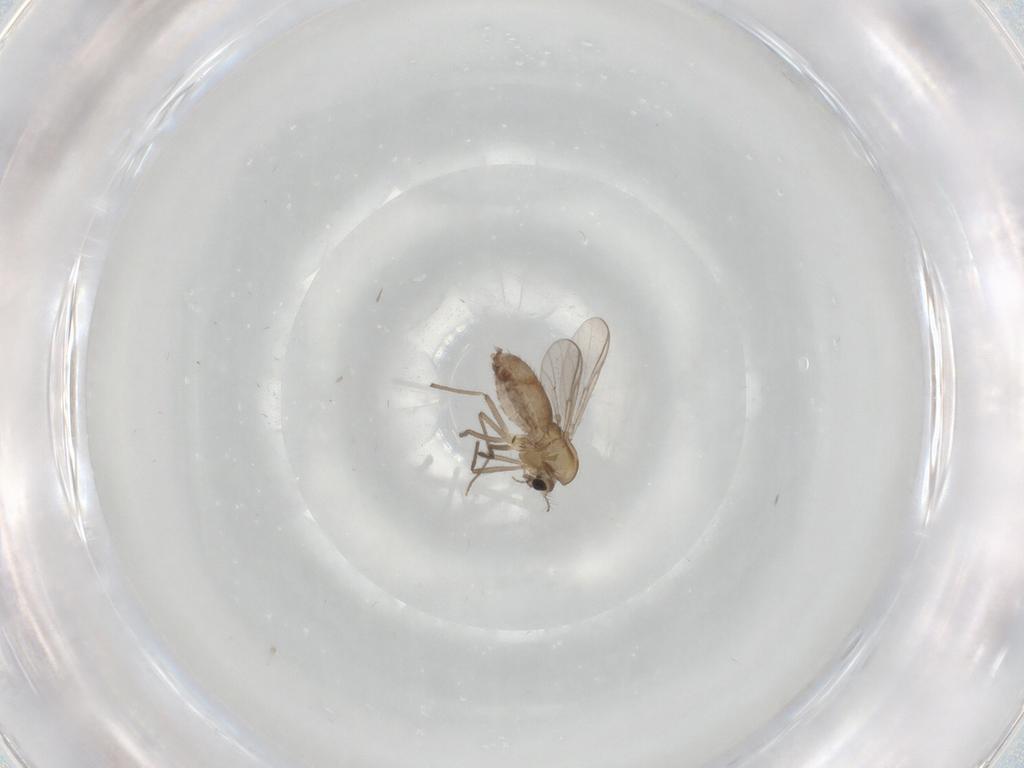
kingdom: Animalia
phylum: Arthropoda
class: Insecta
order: Diptera
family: Chironomidae
